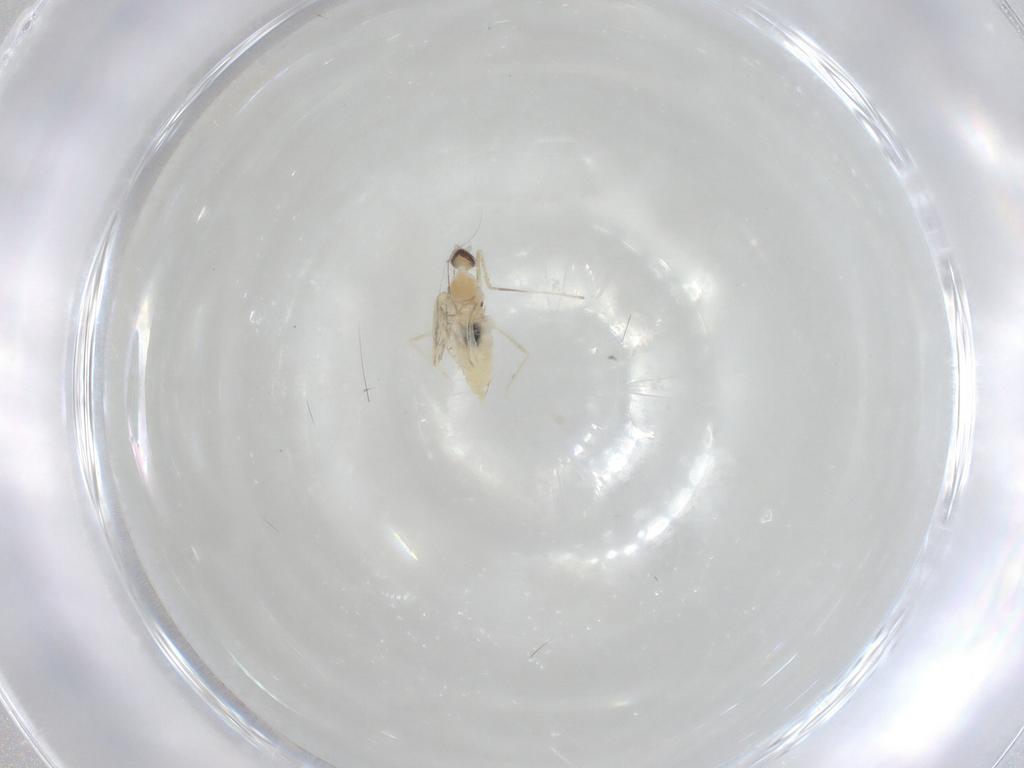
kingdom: Animalia
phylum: Arthropoda
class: Insecta
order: Diptera
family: Cecidomyiidae
